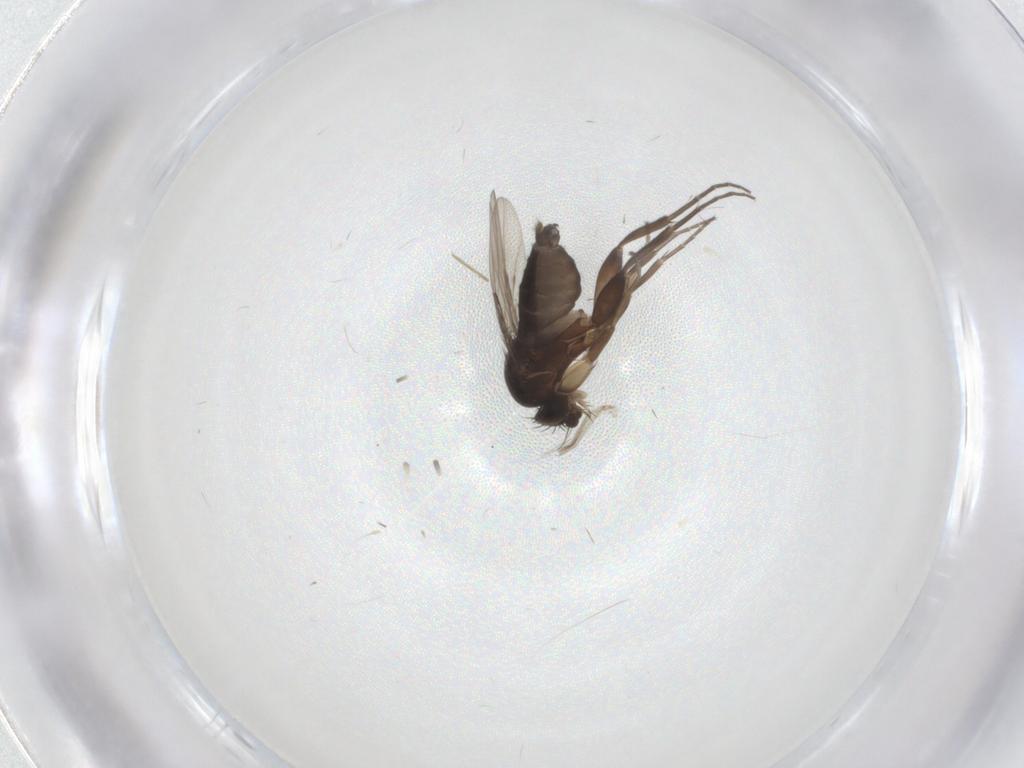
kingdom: Animalia
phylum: Arthropoda
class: Insecta
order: Diptera
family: Phoridae
